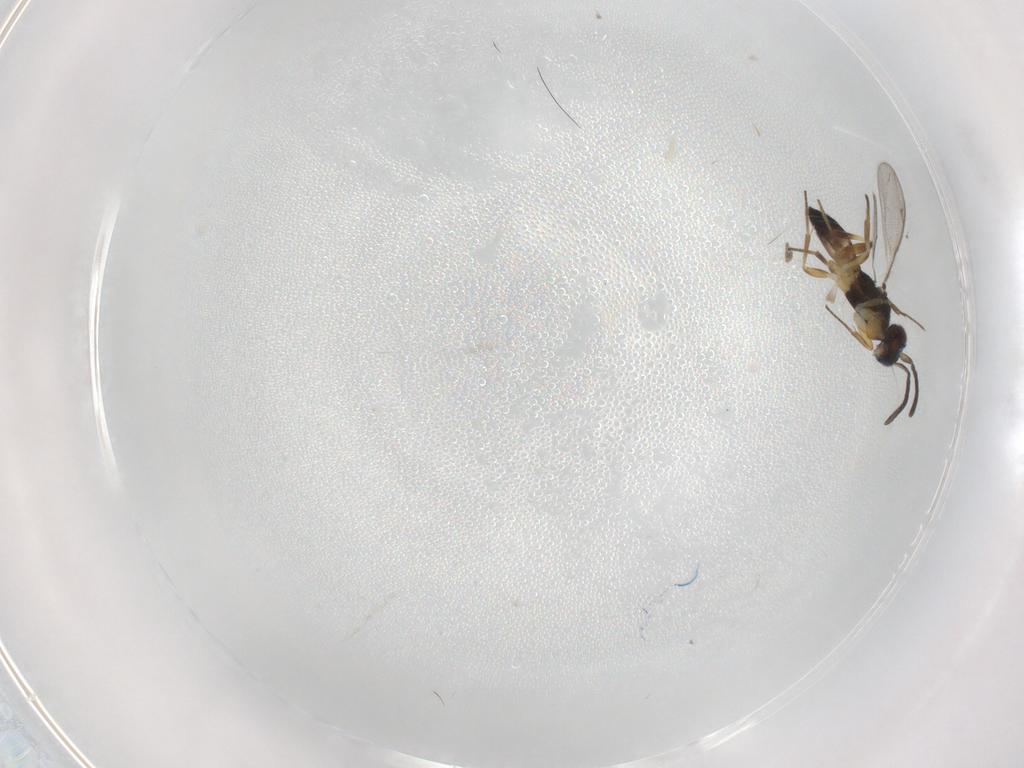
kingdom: Animalia
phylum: Arthropoda
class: Insecta
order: Hymenoptera
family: Eupelmidae
